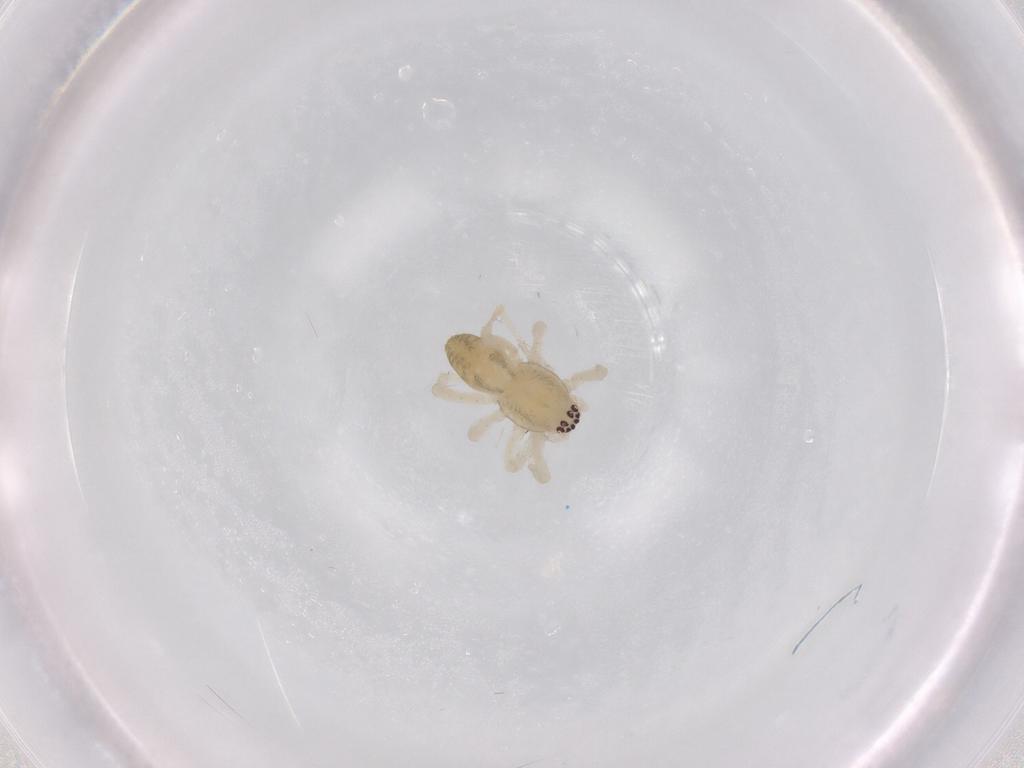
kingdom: Animalia
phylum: Arthropoda
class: Arachnida
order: Araneae
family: Anyphaenidae
